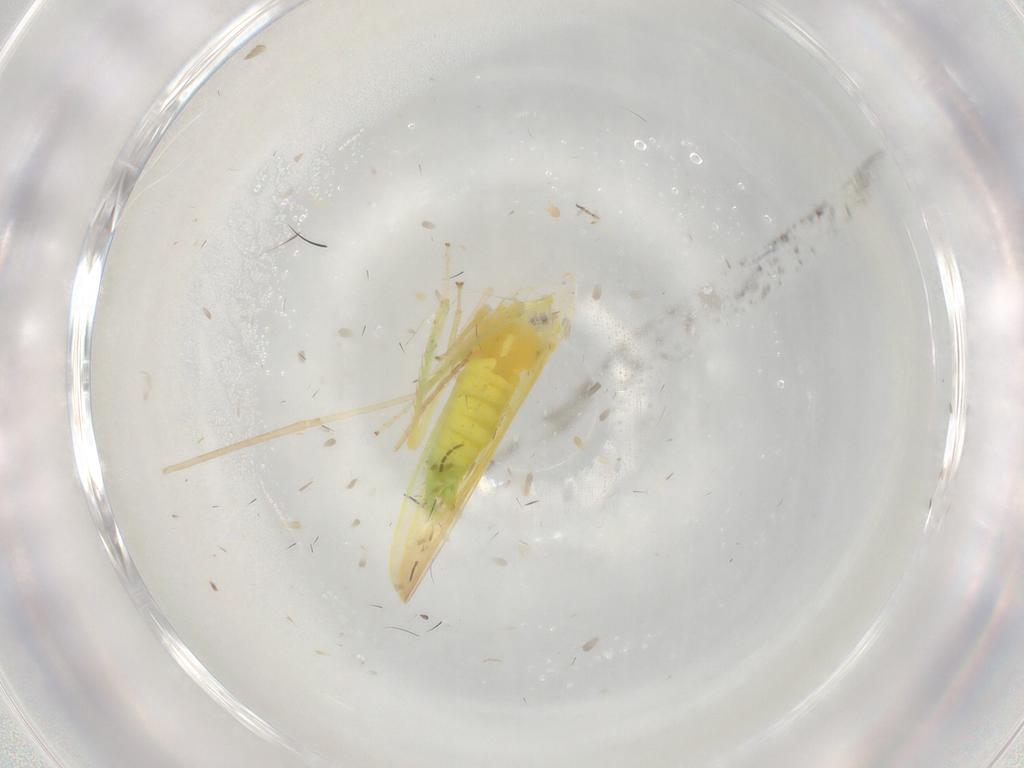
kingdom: Animalia
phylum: Arthropoda
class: Insecta
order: Hemiptera
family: Cicadellidae
